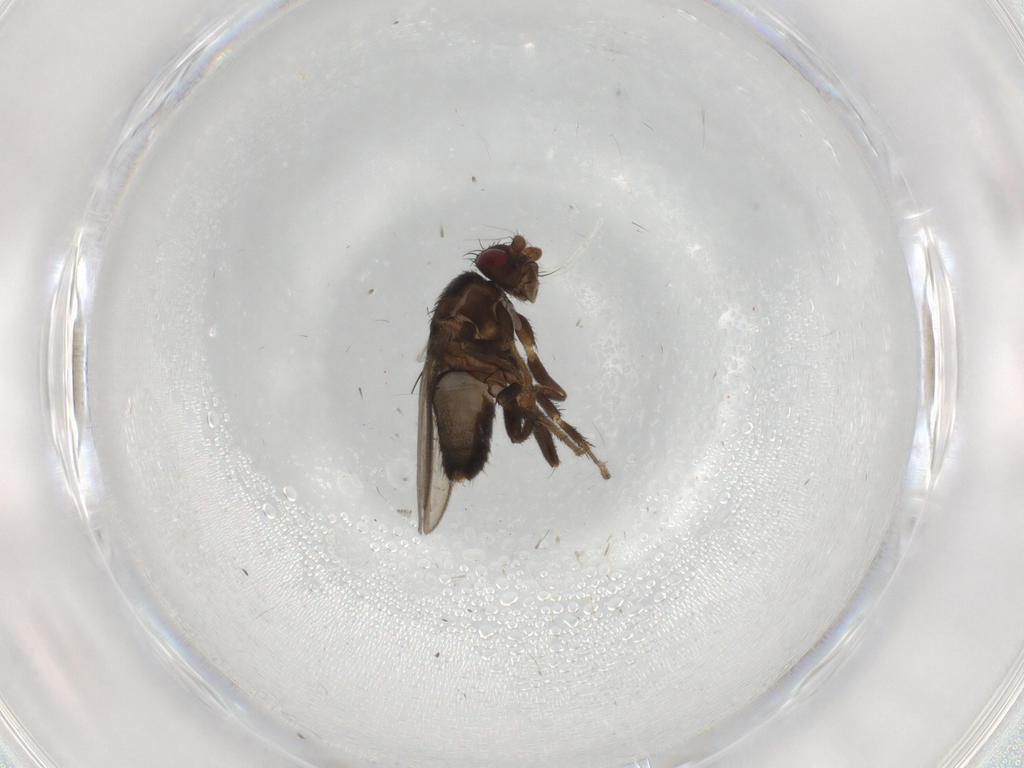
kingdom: Animalia
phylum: Arthropoda
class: Insecta
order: Diptera
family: Sphaeroceridae
